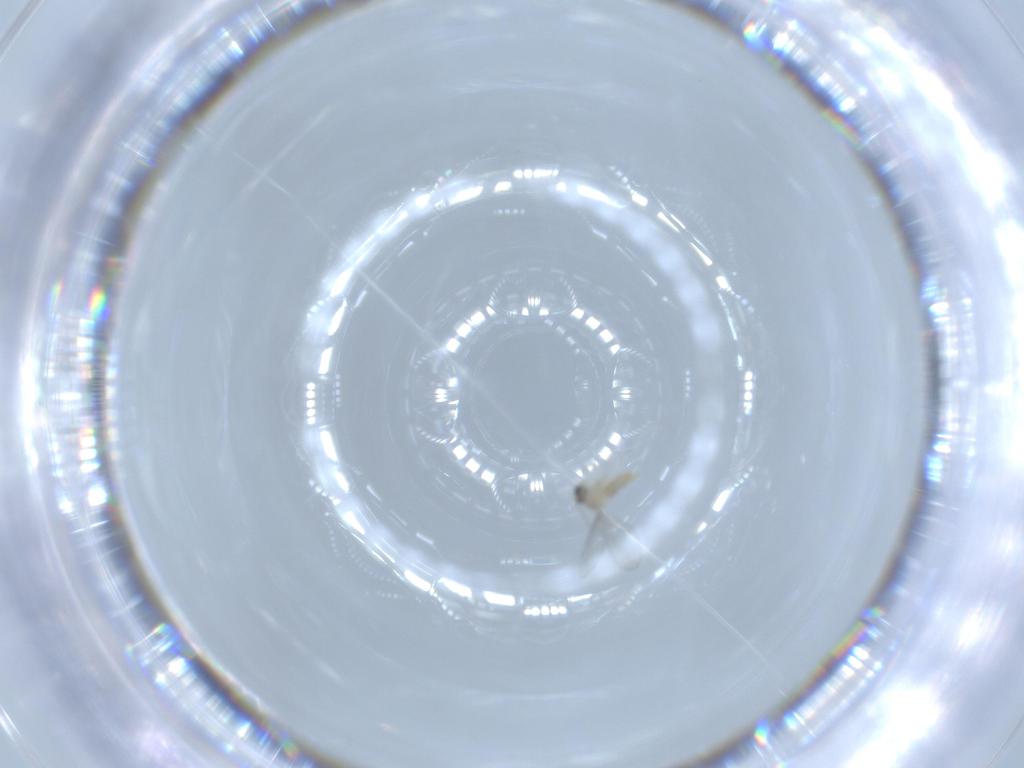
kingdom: Animalia
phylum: Arthropoda
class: Insecta
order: Diptera
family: Cecidomyiidae
